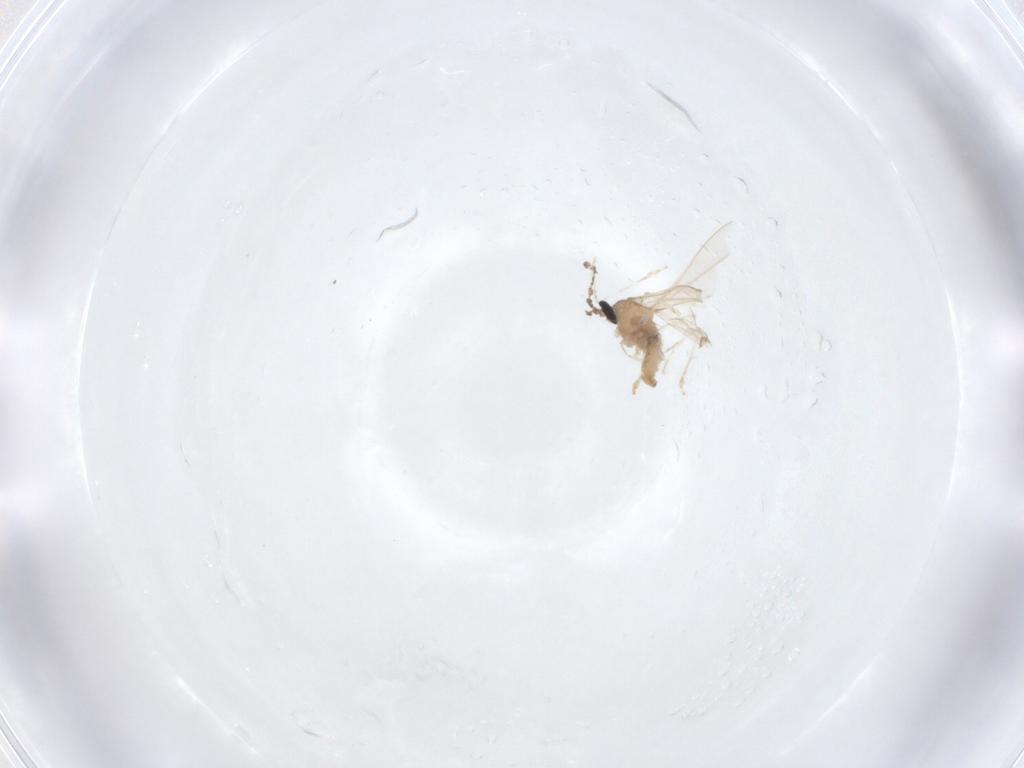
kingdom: Animalia
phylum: Arthropoda
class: Insecta
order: Diptera
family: Cecidomyiidae
